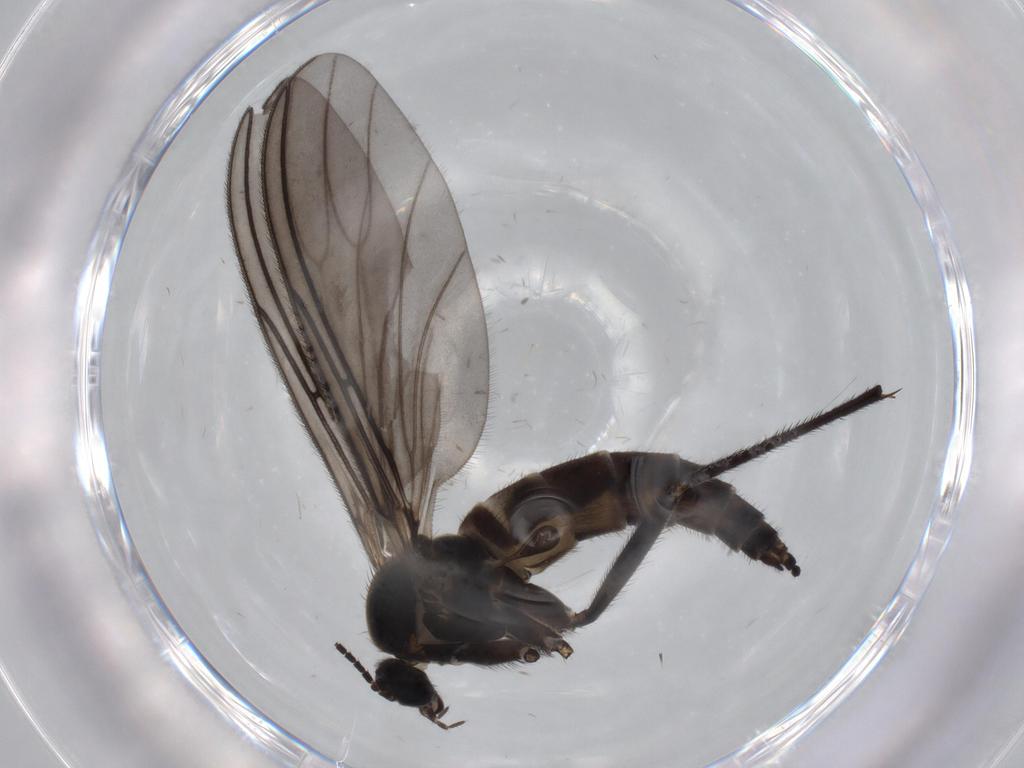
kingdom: Animalia
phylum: Arthropoda
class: Insecta
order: Diptera
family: Sciaridae
